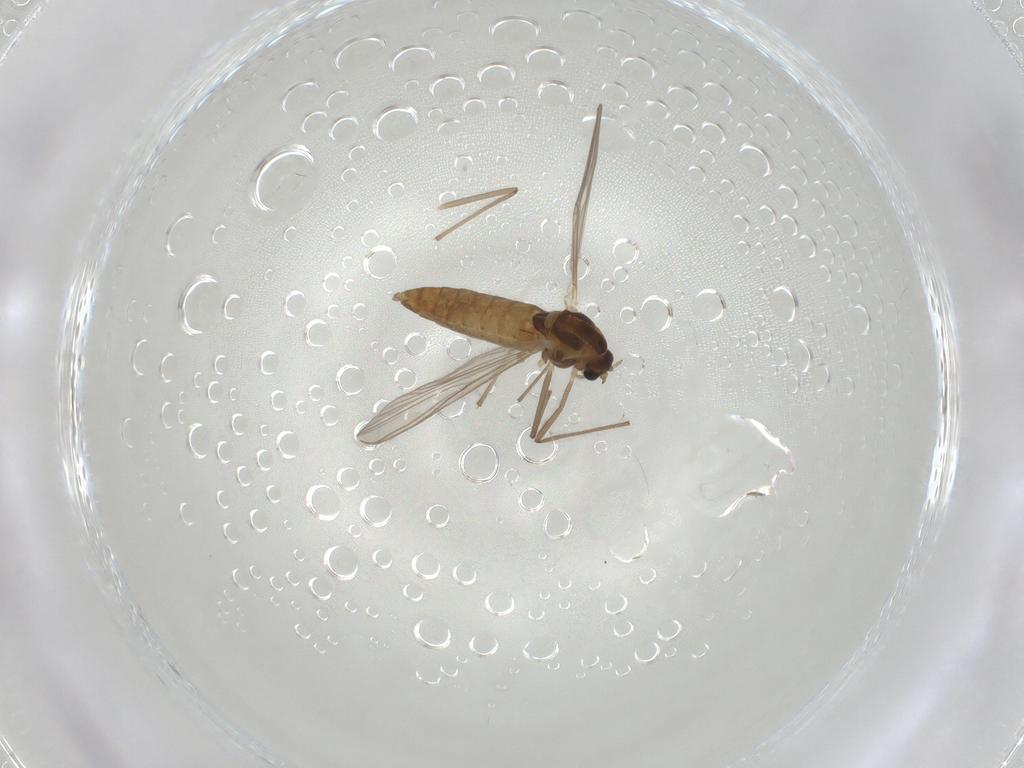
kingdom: Animalia
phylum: Arthropoda
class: Insecta
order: Diptera
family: Chironomidae
